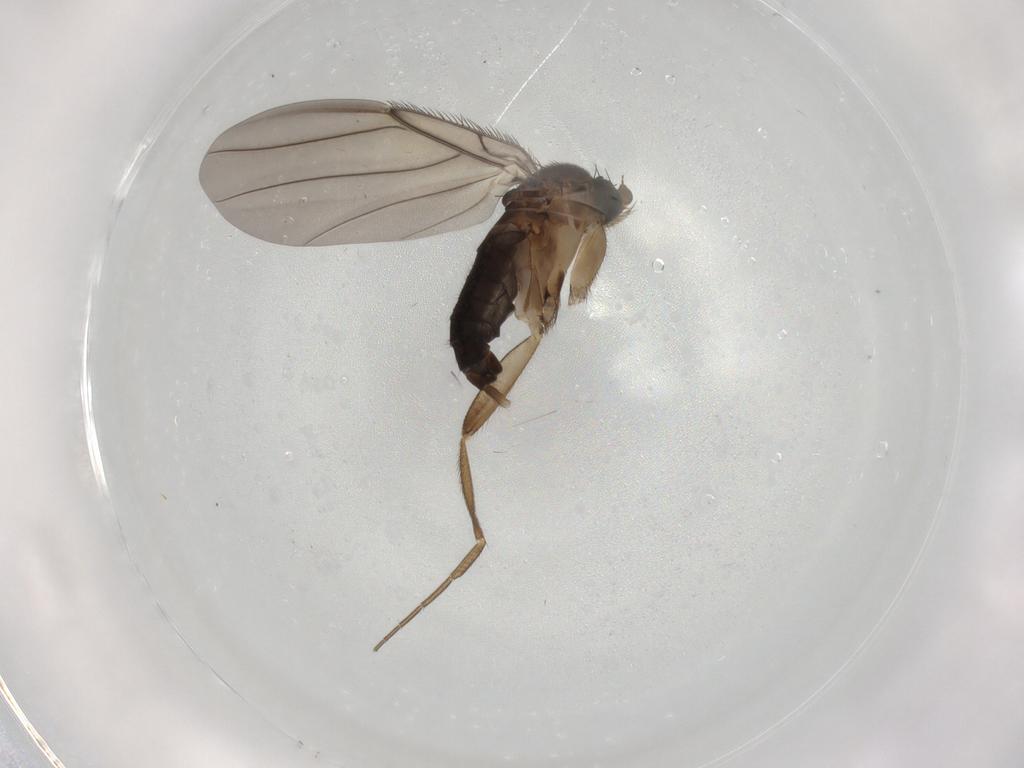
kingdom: Animalia
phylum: Arthropoda
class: Insecta
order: Diptera
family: Phoridae
